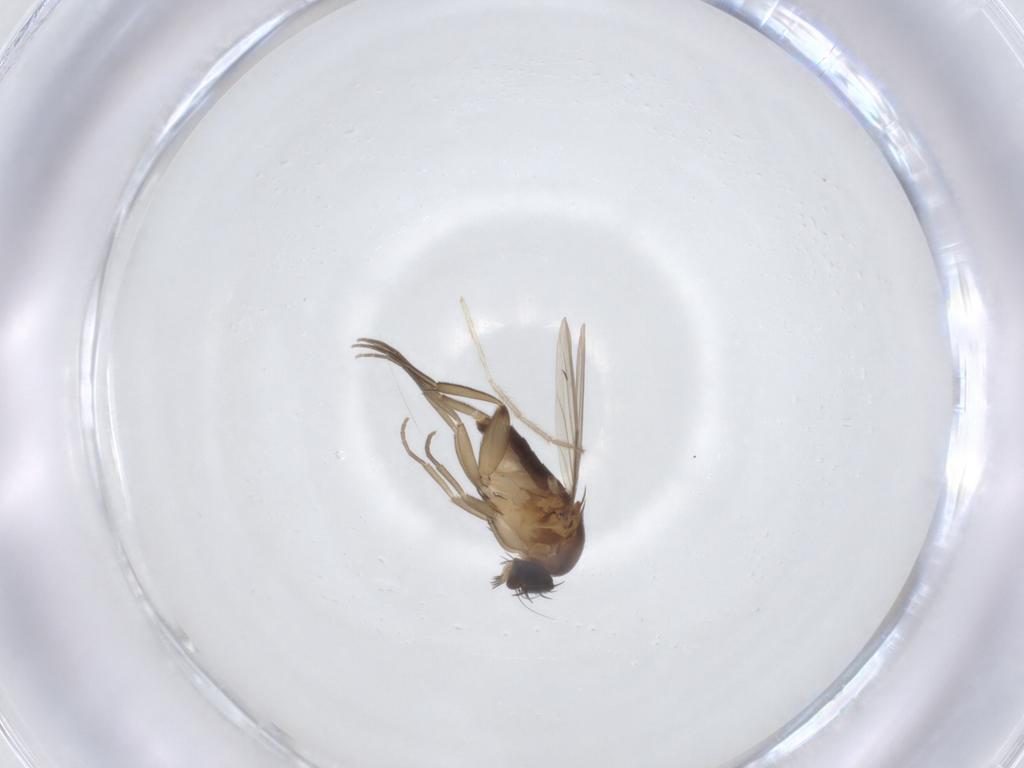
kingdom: Animalia
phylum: Arthropoda
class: Insecta
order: Diptera
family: Phoridae
